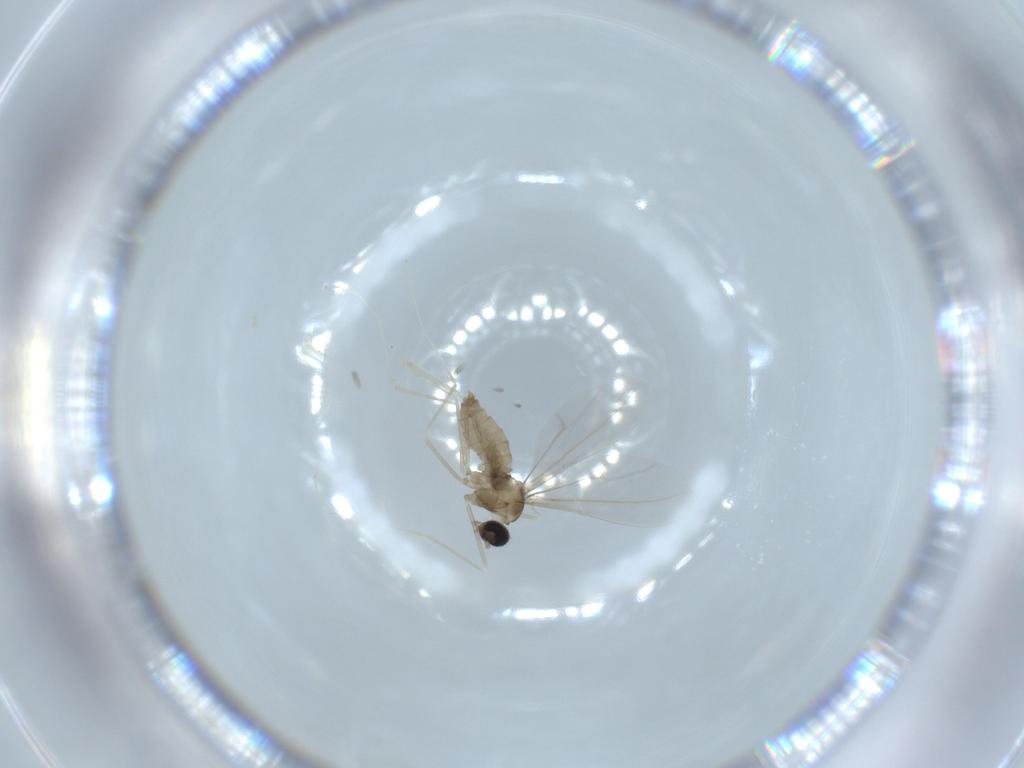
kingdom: Animalia
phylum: Arthropoda
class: Insecta
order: Diptera
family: Cecidomyiidae
